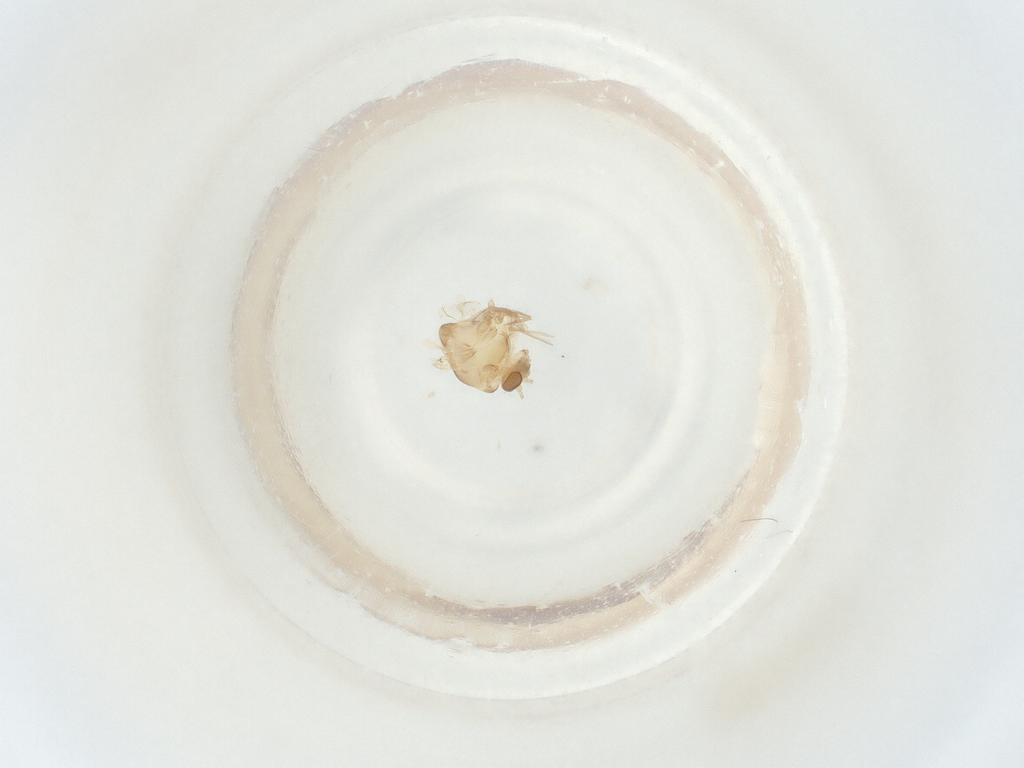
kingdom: Animalia
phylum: Arthropoda
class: Insecta
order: Diptera
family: Chironomidae
